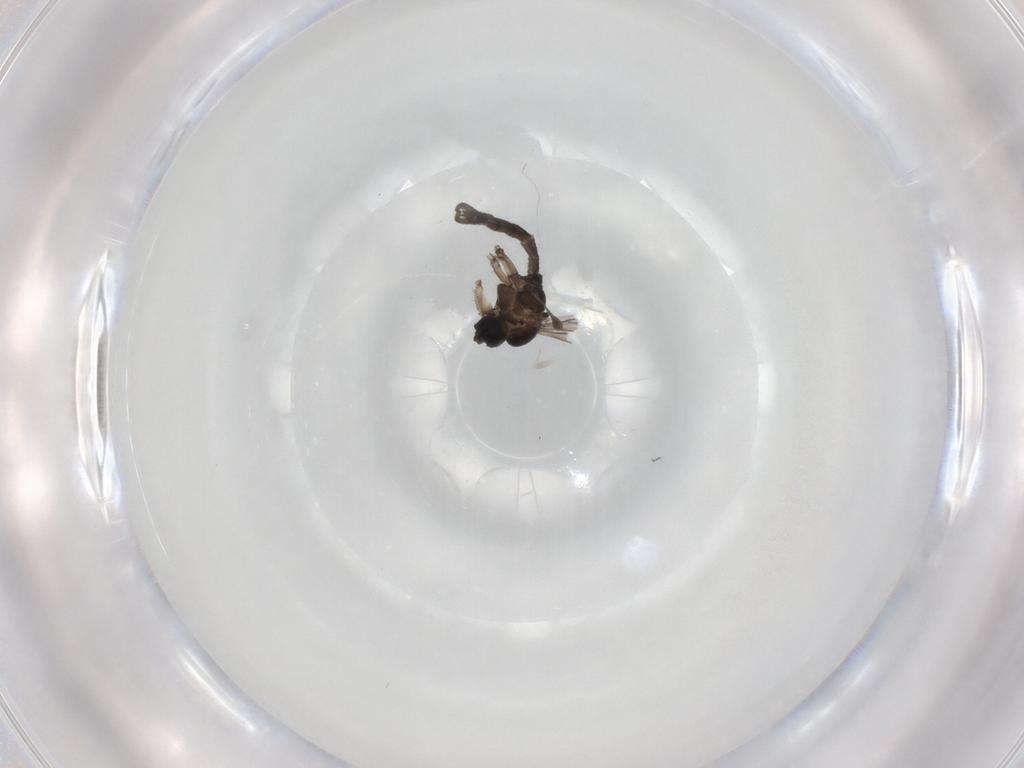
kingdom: Animalia
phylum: Arthropoda
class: Insecta
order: Diptera
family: Sciaridae
